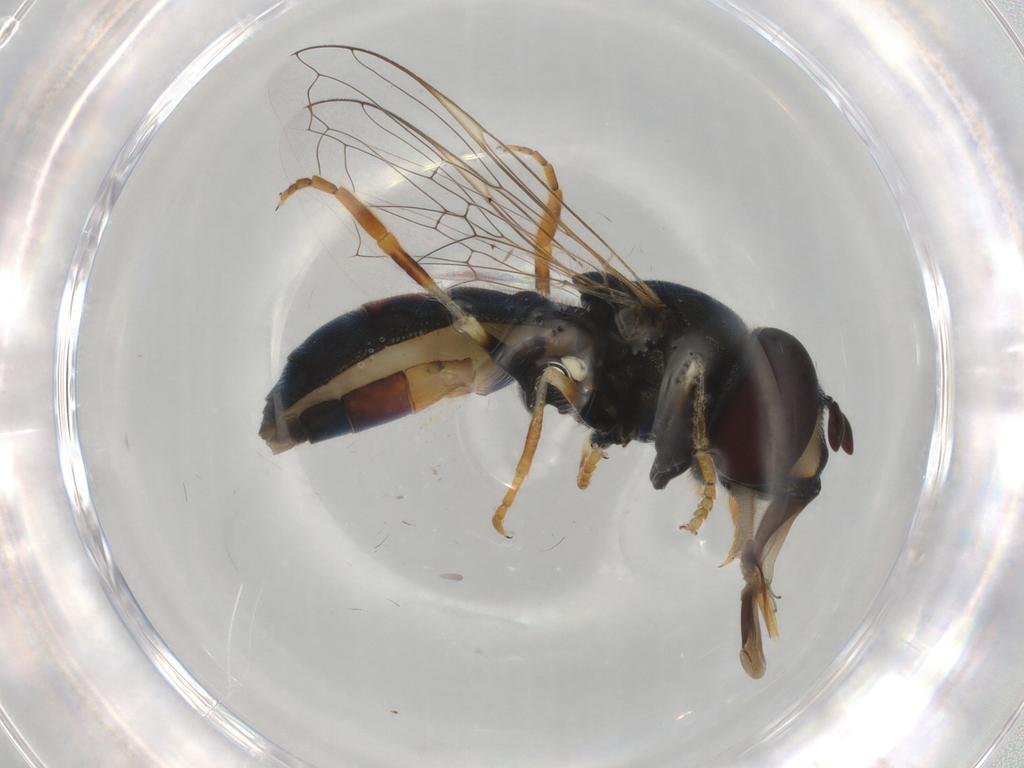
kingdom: Animalia
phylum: Arthropoda
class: Insecta
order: Diptera
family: Syrphidae
